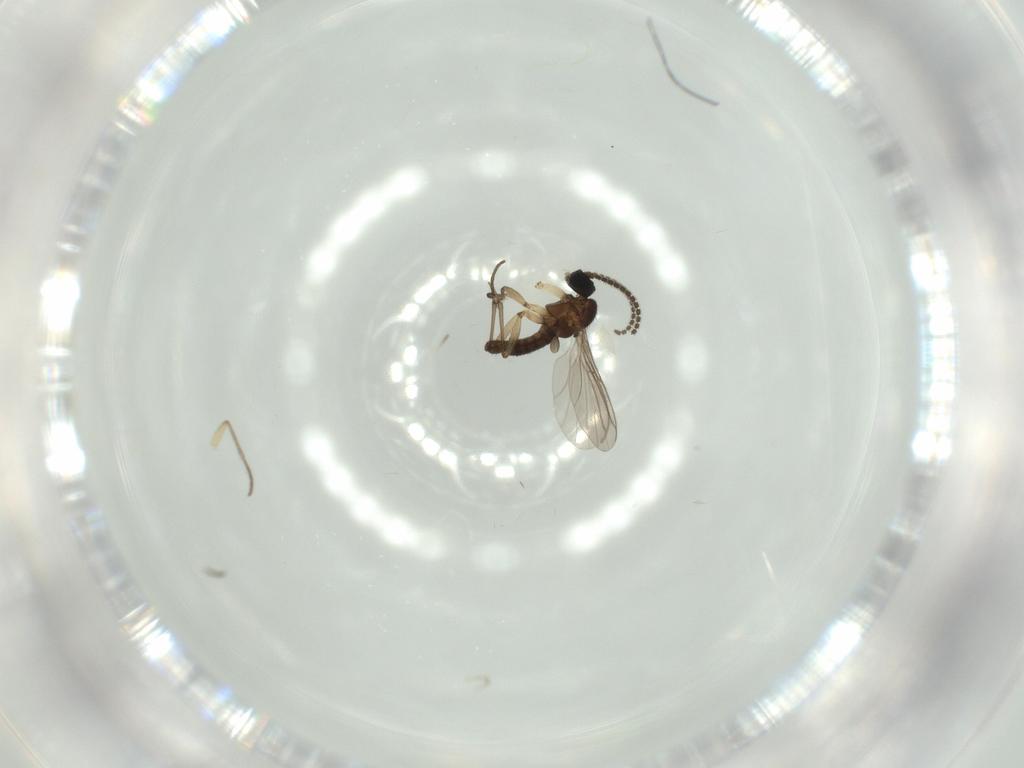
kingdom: Animalia
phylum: Arthropoda
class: Insecta
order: Diptera
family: Sciaridae
